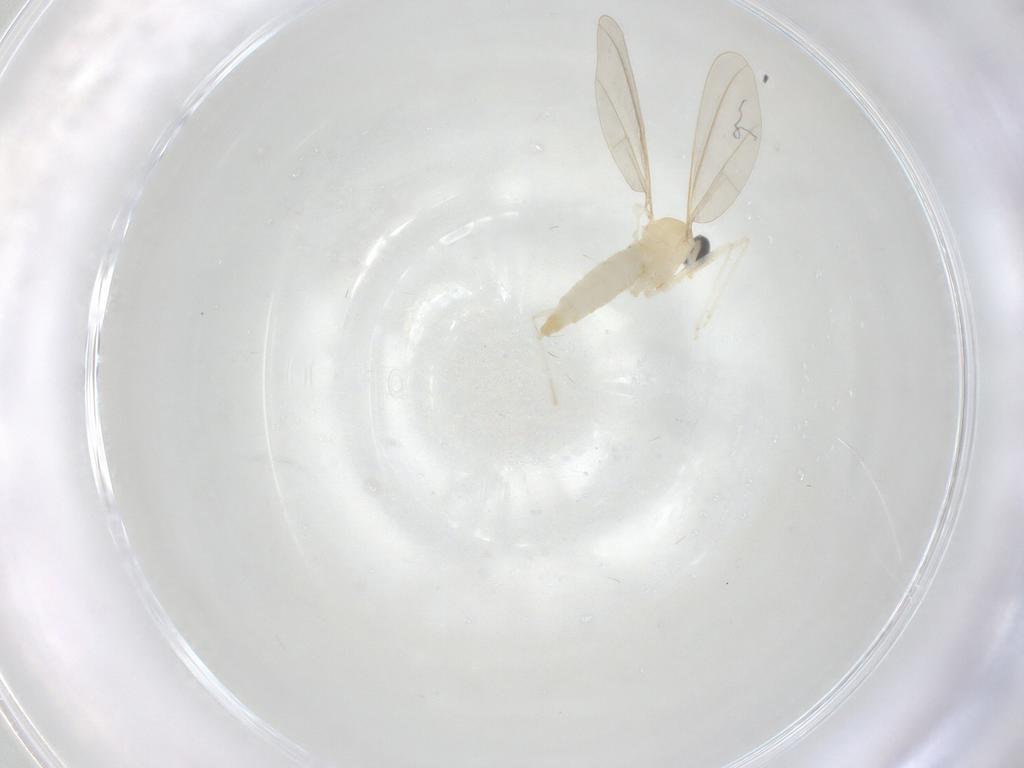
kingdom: Animalia
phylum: Arthropoda
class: Insecta
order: Diptera
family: Cecidomyiidae
